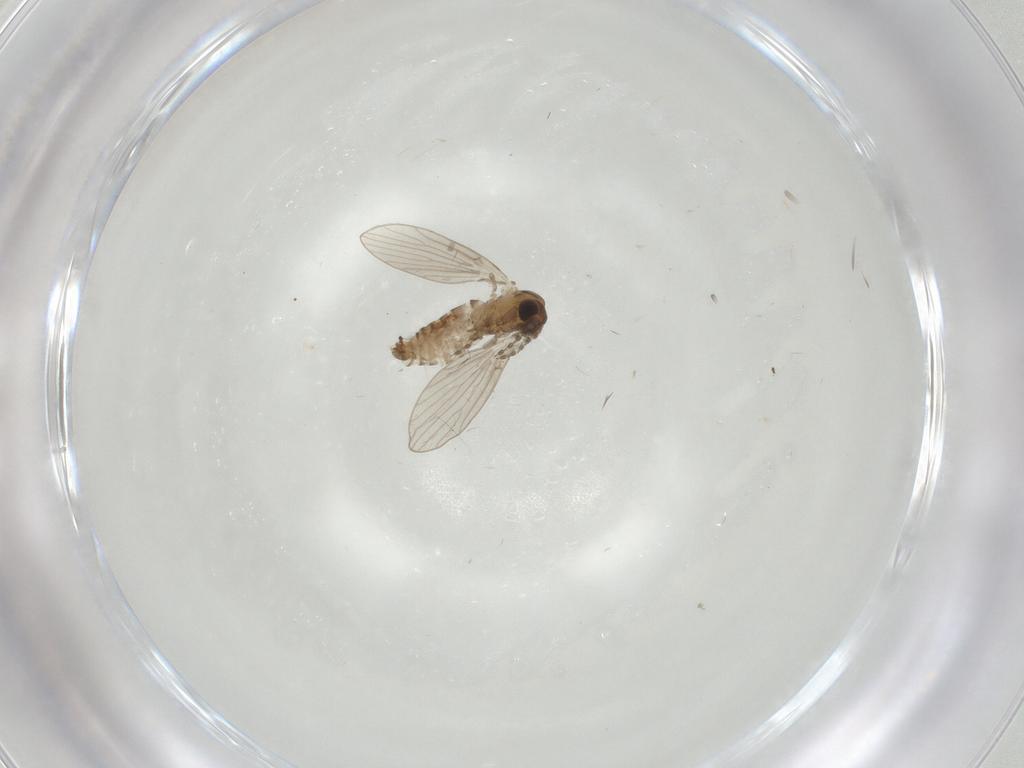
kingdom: Animalia
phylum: Arthropoda
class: Insecta
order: Diptera
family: Psychodidae
